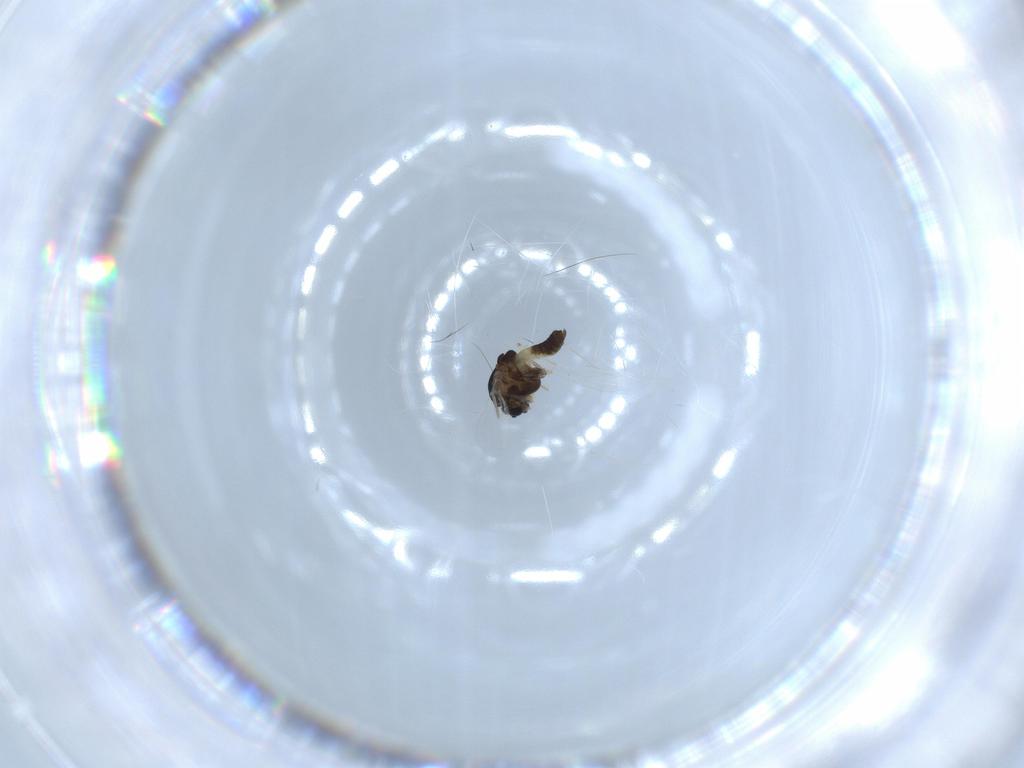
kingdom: Animalia
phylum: Arthropoda
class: Insecta
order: Diptera
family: Chironomidae
